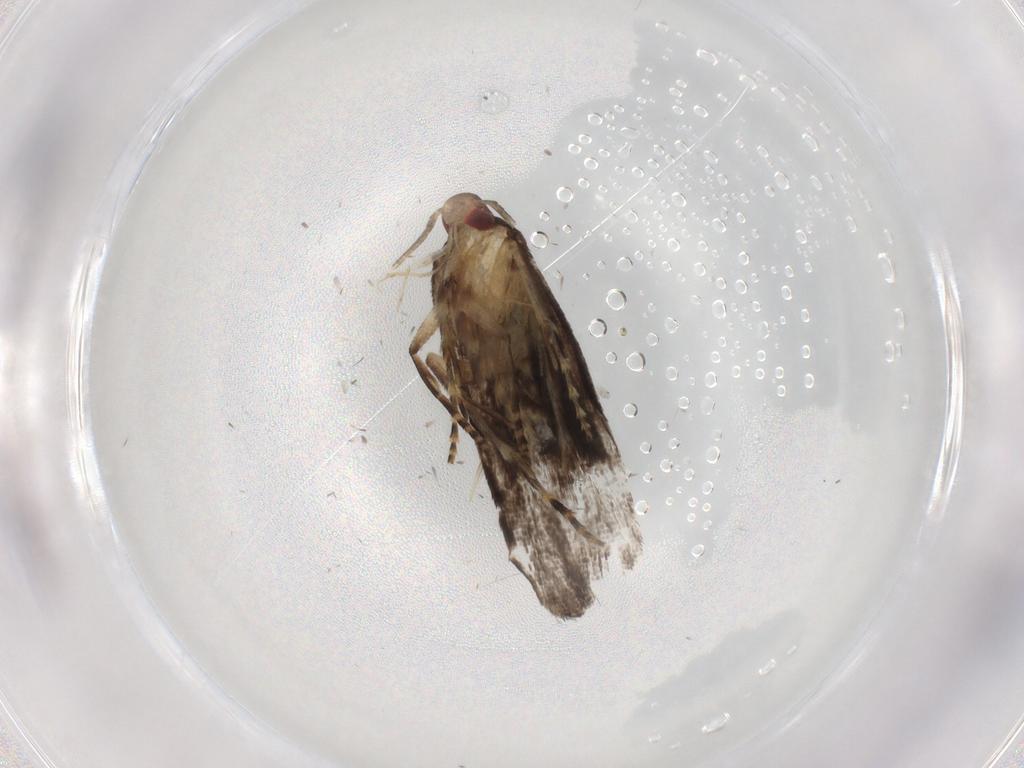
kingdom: Animalia
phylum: Arthropoda
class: Insecta
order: Lepidoptera
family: Gelechiidae
